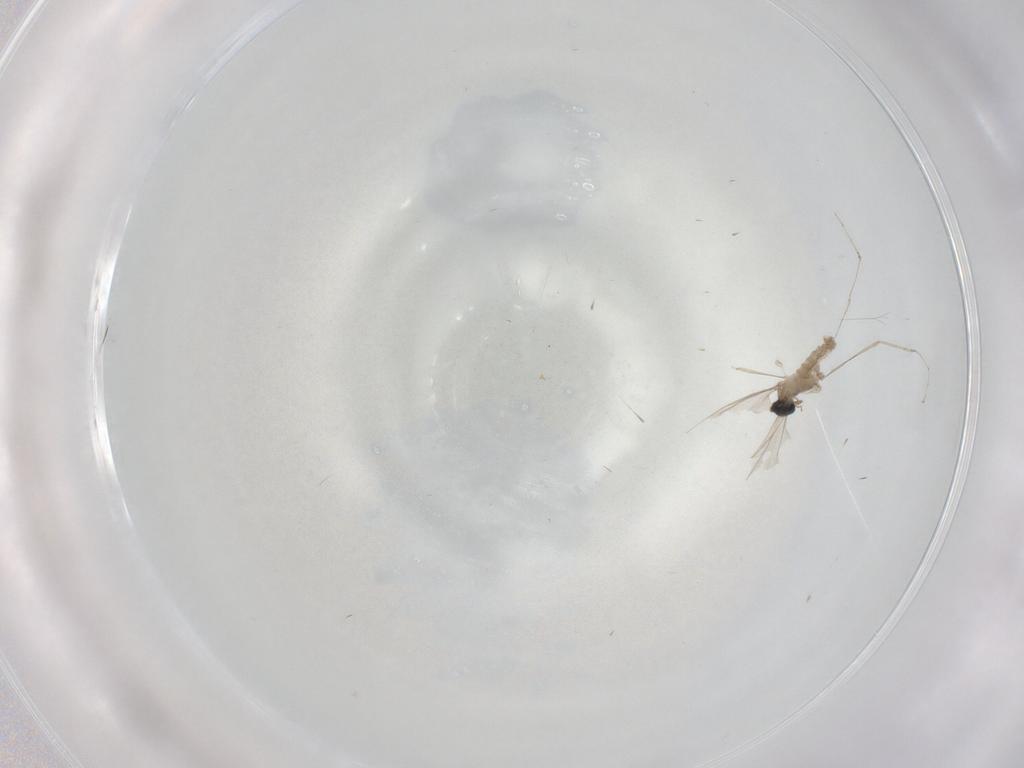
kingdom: Animalia
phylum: Arthropoda
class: Insecta
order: Diptera
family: Cecidomyiidae
